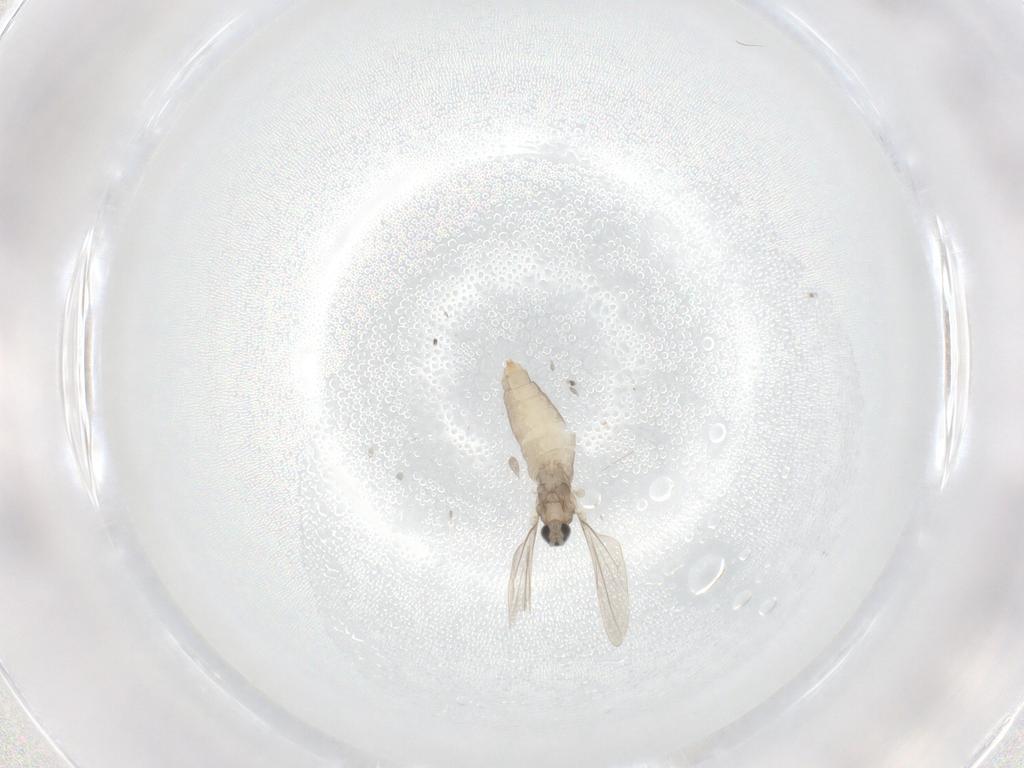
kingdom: Animalia
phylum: Arthropoda
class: Insecta
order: Diptera
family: Cecidomyiidae
